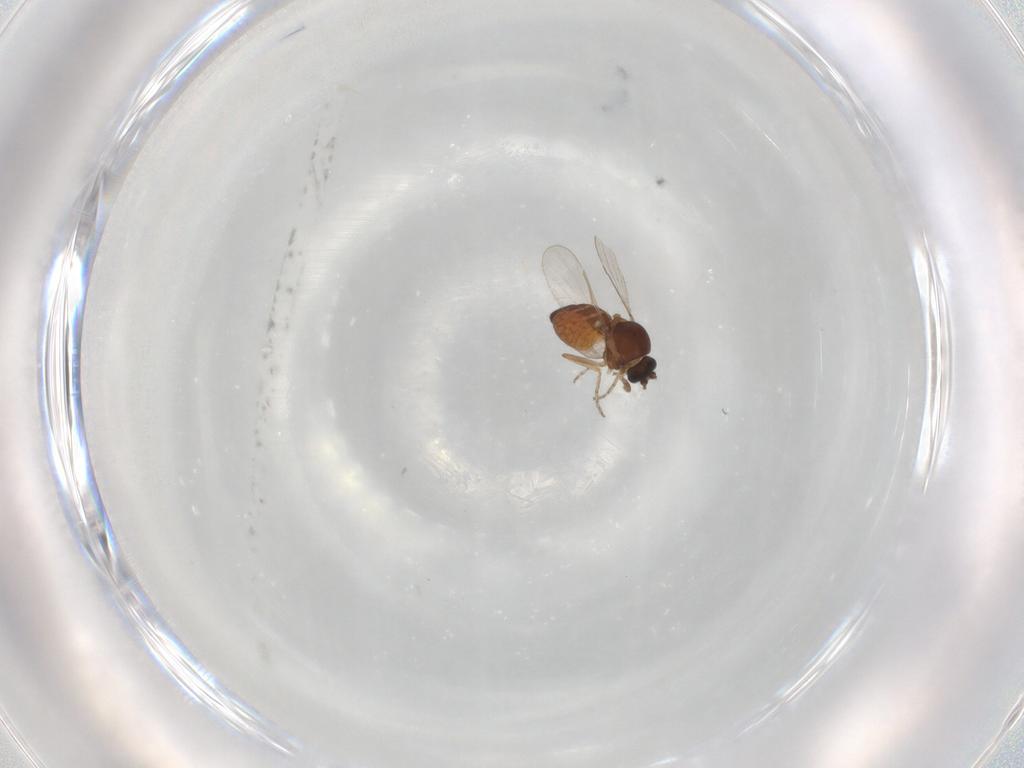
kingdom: Animalia
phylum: Arthropoda
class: Insecta
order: Diptera
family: Ceratopogonidae
